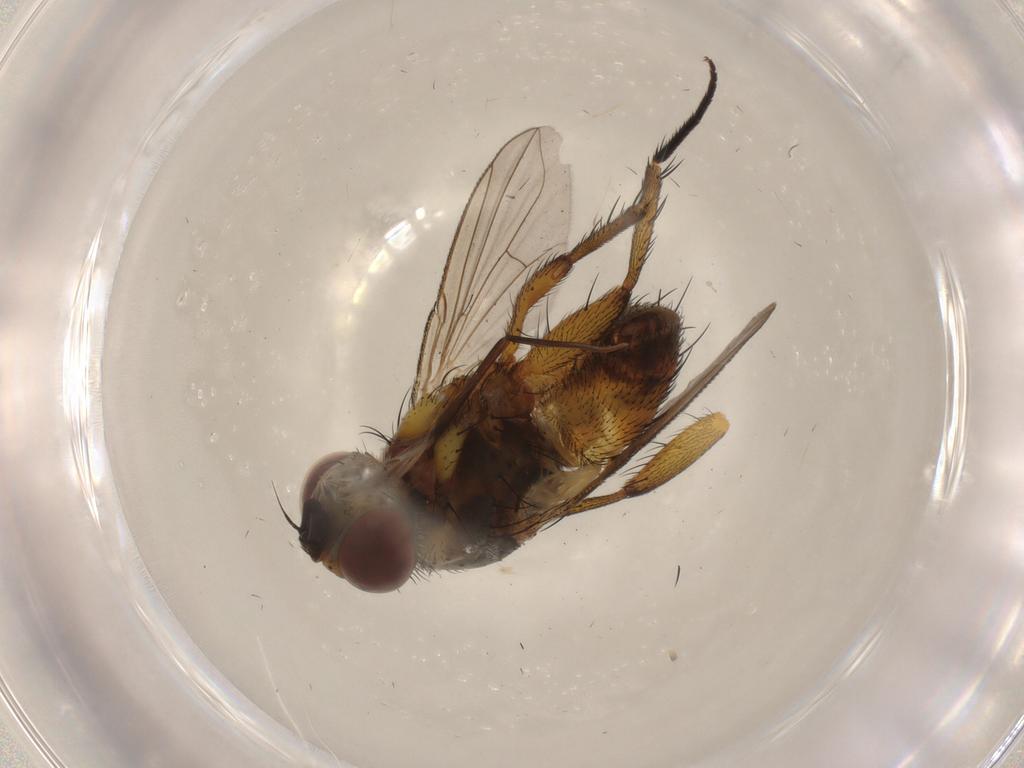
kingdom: Animalia
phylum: Arthropoda
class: Insecta
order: Diptera
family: Tachinidae
